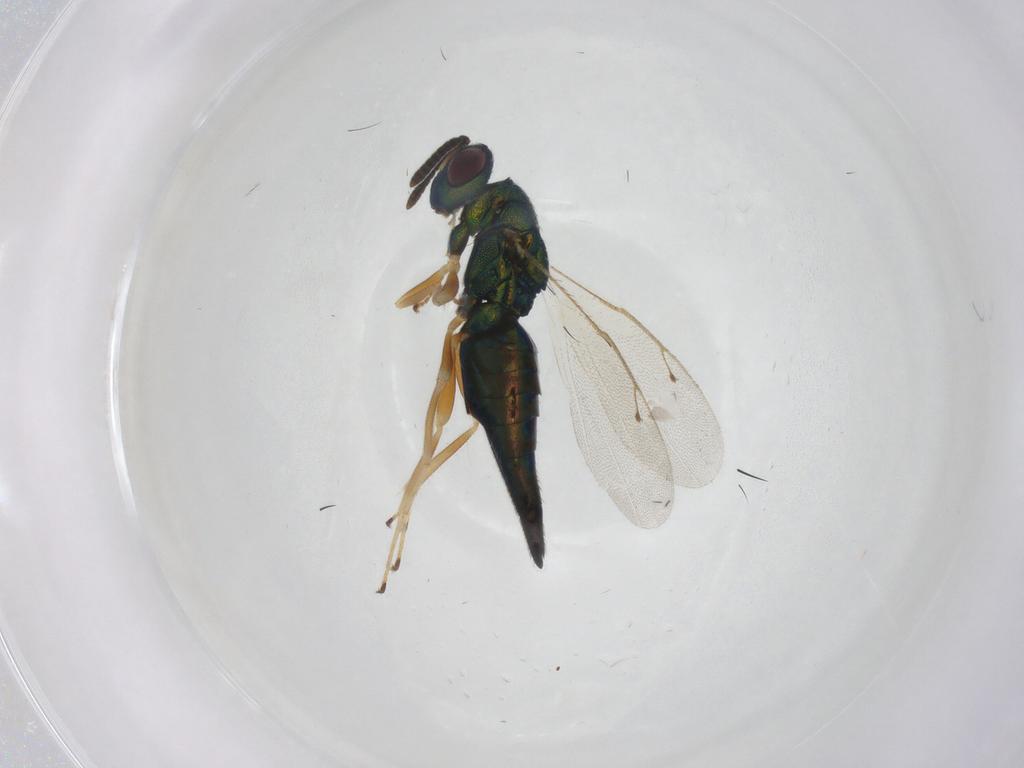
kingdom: Animalia
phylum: Arthropoda
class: Insecta
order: Hymenoptera
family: Pteromalidae
